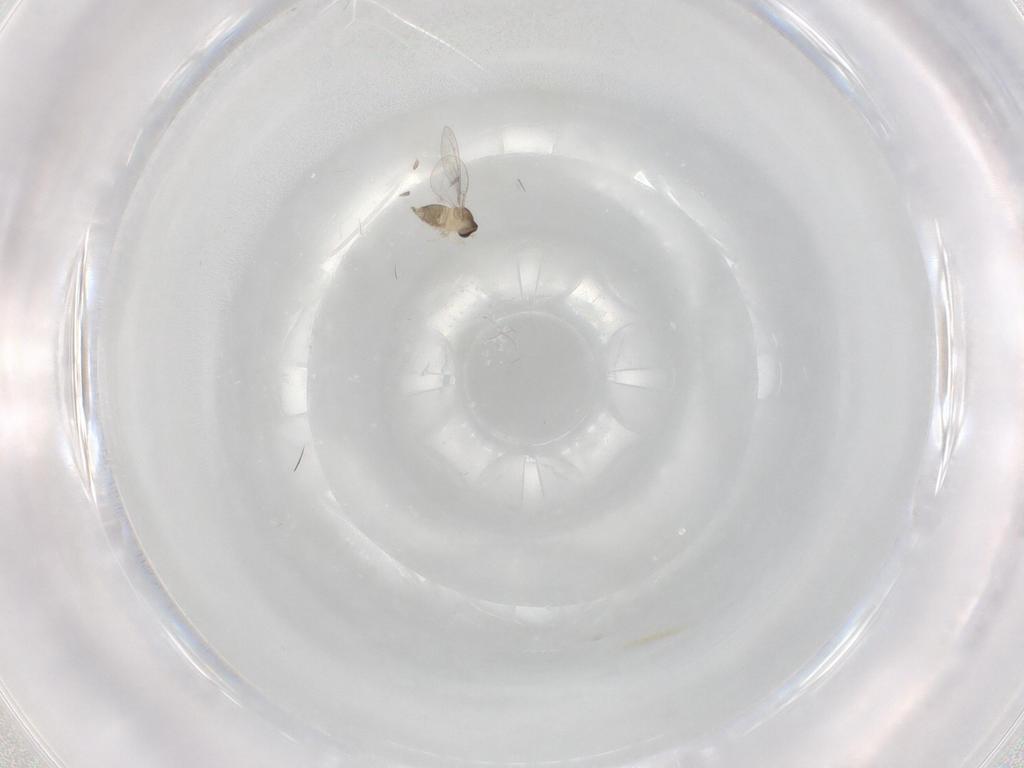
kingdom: Animalia
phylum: Arthropoda
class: Insecta
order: Diptera
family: Cecidomyiidae
